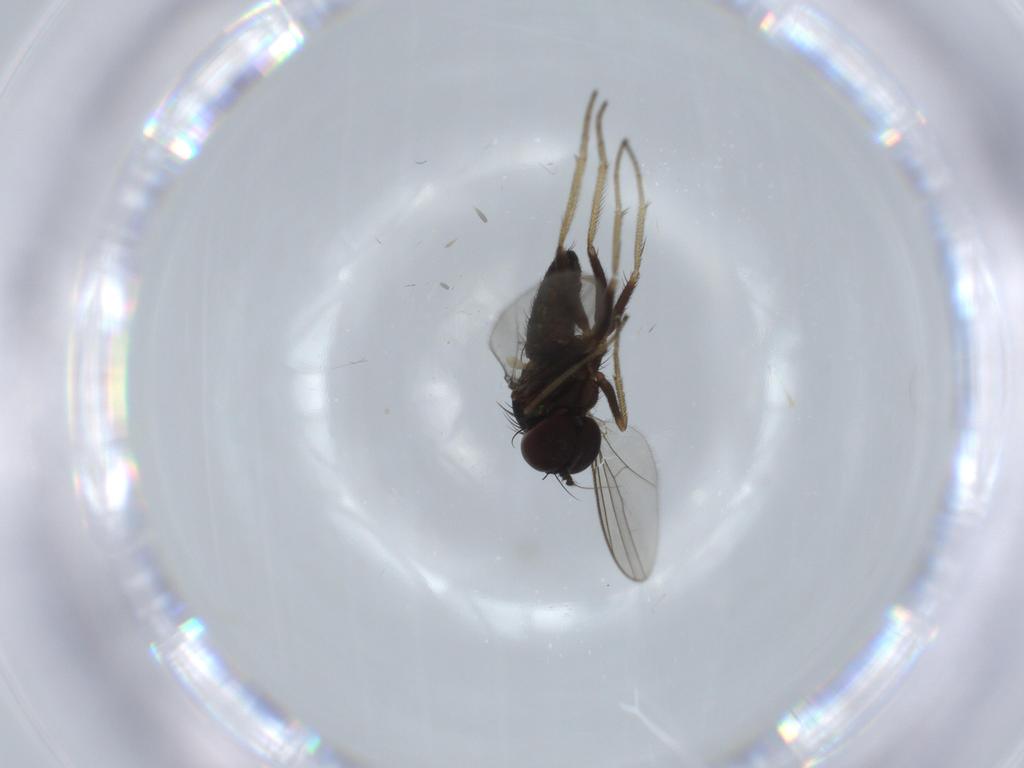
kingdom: Animalia
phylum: Arthropoda
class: Insecta
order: Diptera
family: Dolichopodidae
